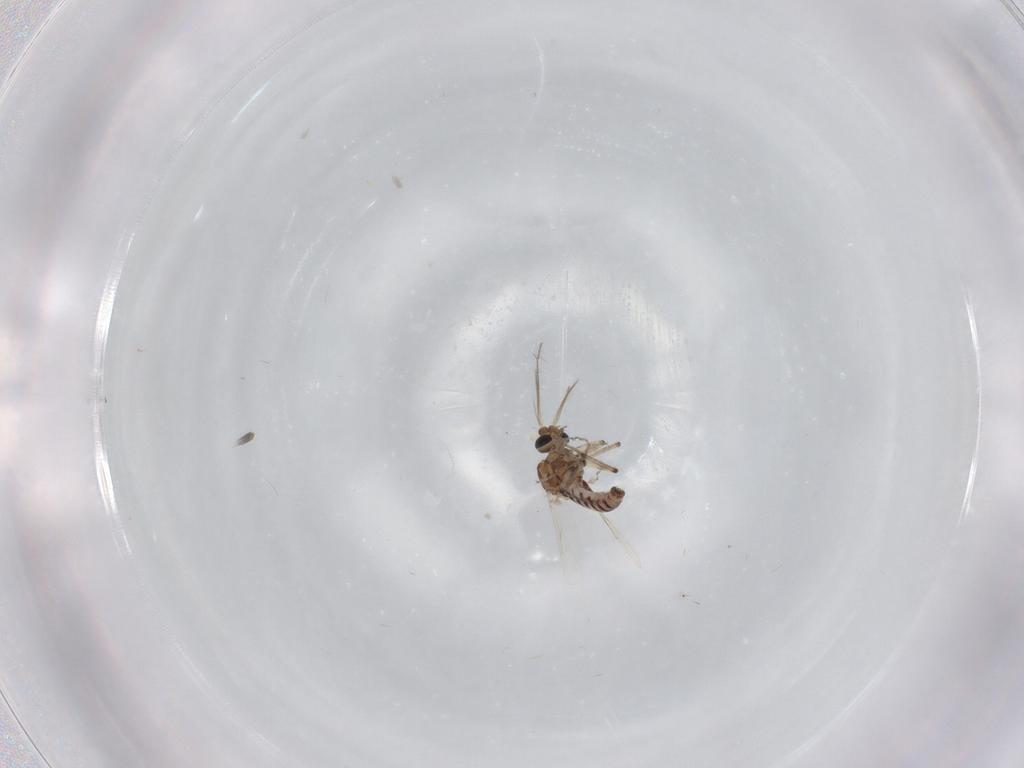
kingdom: Animalia
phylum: Arthropoda
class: Insecta
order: Diptera
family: Ceratopogonidae
